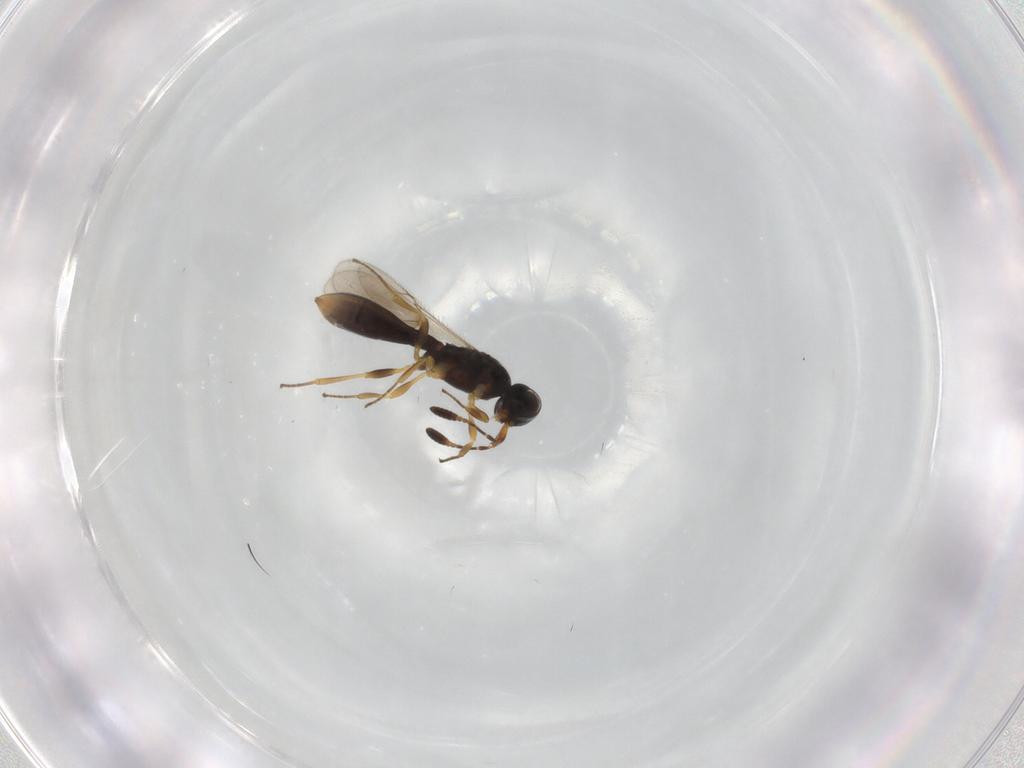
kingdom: Animalia
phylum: Arthropoda
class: Insecta
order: Hymenoptera
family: Scelionidae
